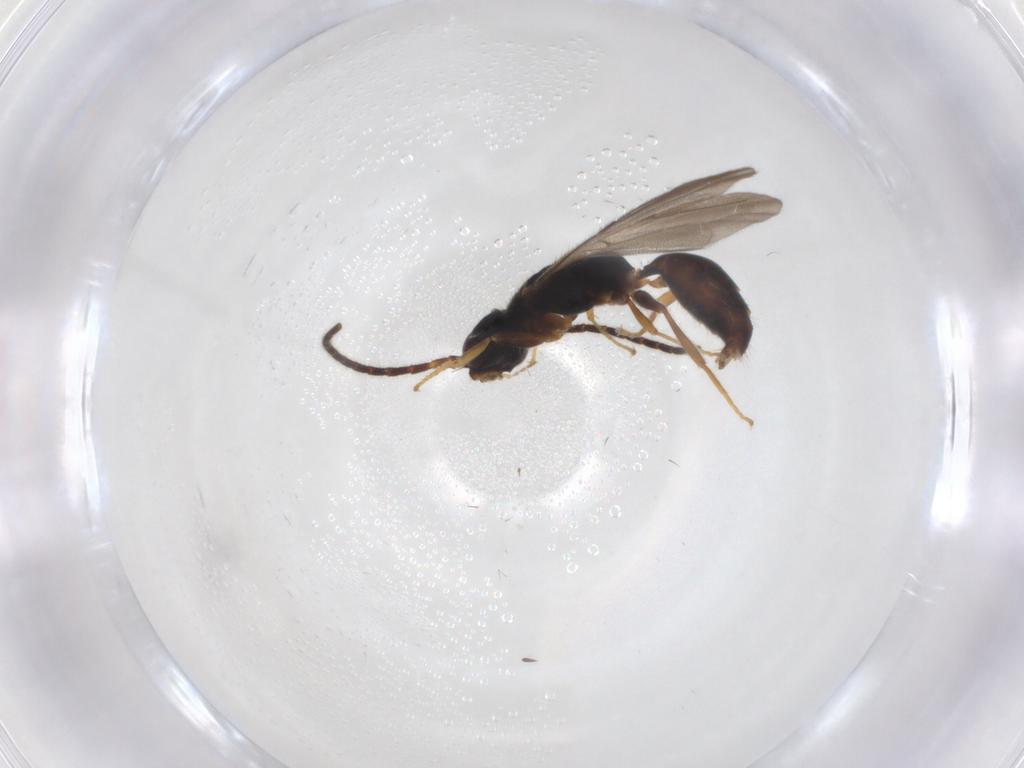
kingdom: Animalia
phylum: Arthropoda
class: Insecta
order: Hymenoptera
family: Bethylidae
